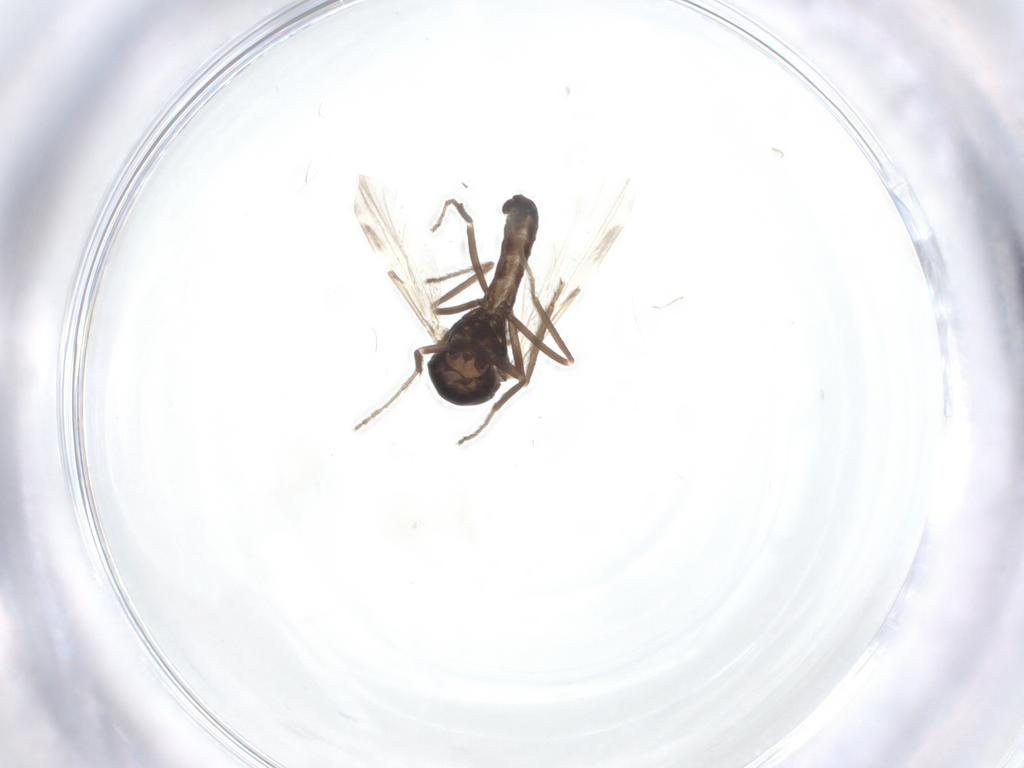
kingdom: Animalia
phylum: Arthropoda
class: Insecta
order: Diptera
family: Ceratopogonidae
